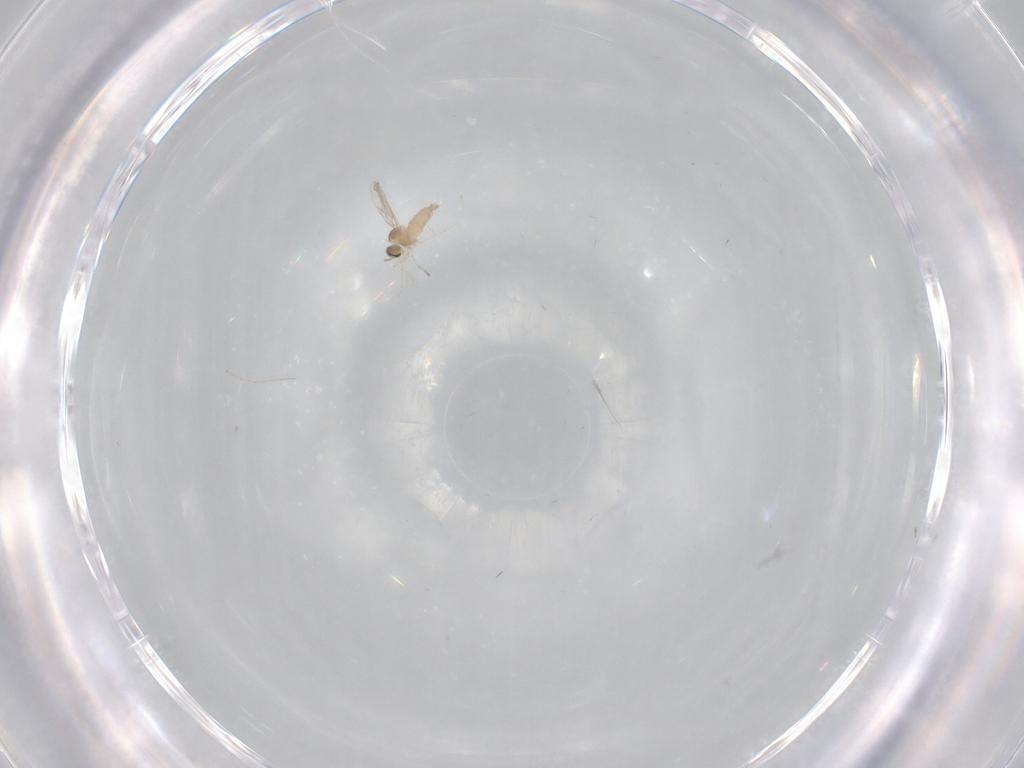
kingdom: Animalia
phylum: Arthropoda
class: Insecta
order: Diptera
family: Cecidomyiidae
